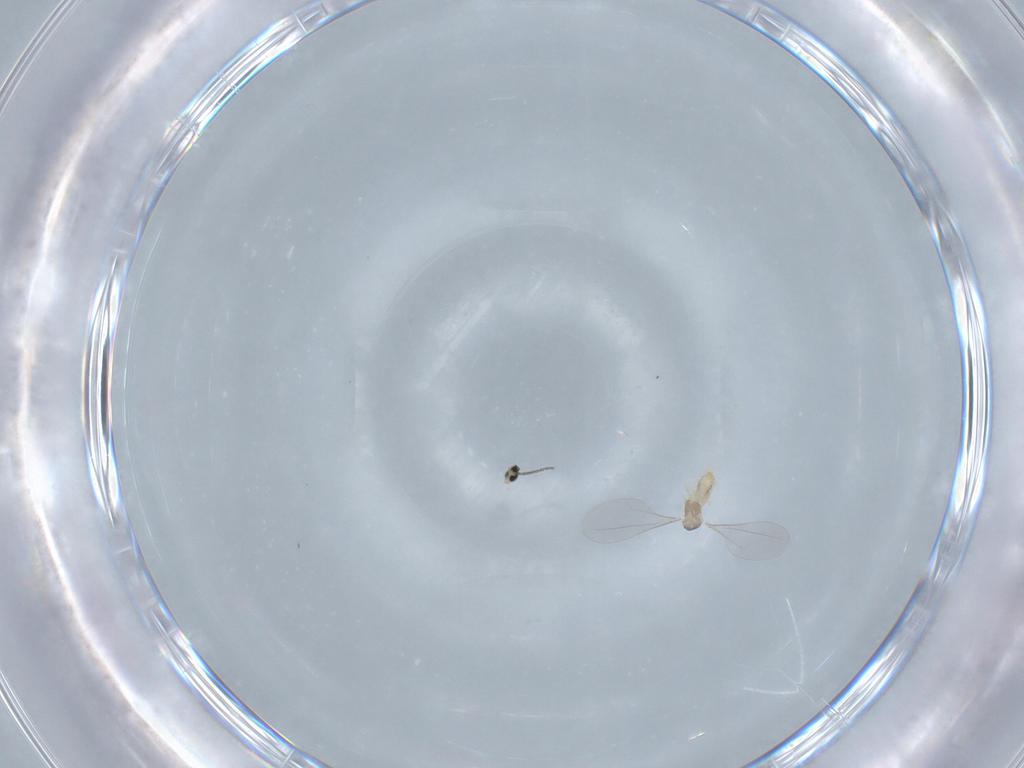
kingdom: Animalia
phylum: Arthropoda
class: Insecta
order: Diptera
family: Cecidomyiidae
